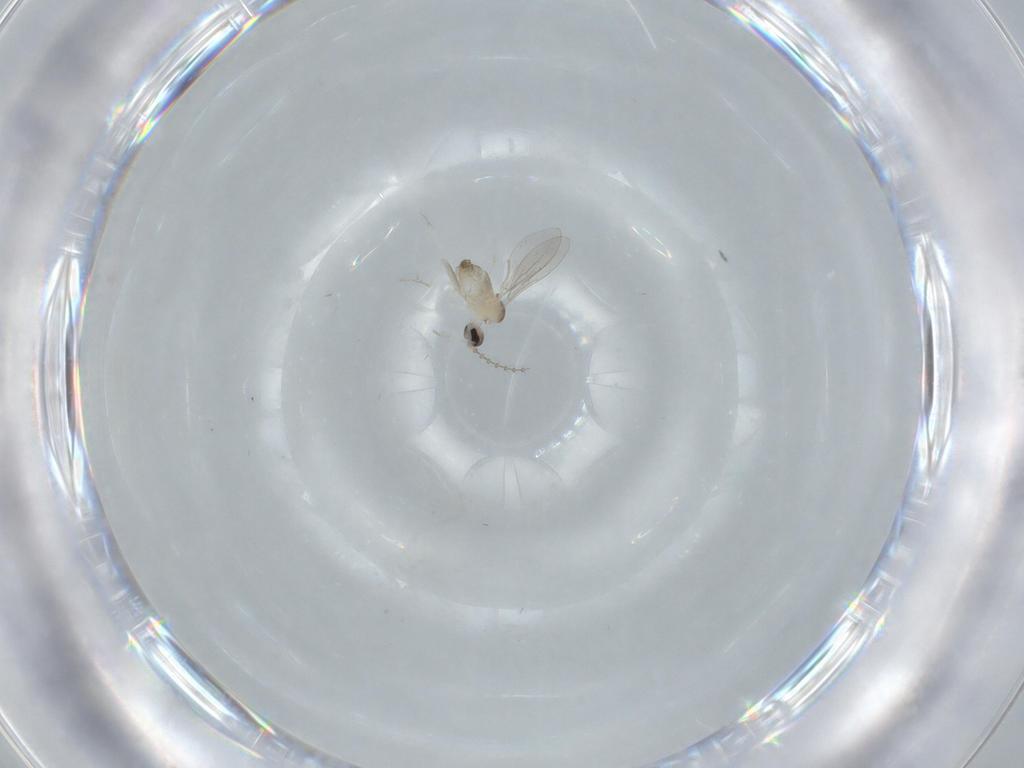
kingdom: Animalia
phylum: Arthropoda
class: Insecta
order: Diptera
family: Cecidomyiidae
